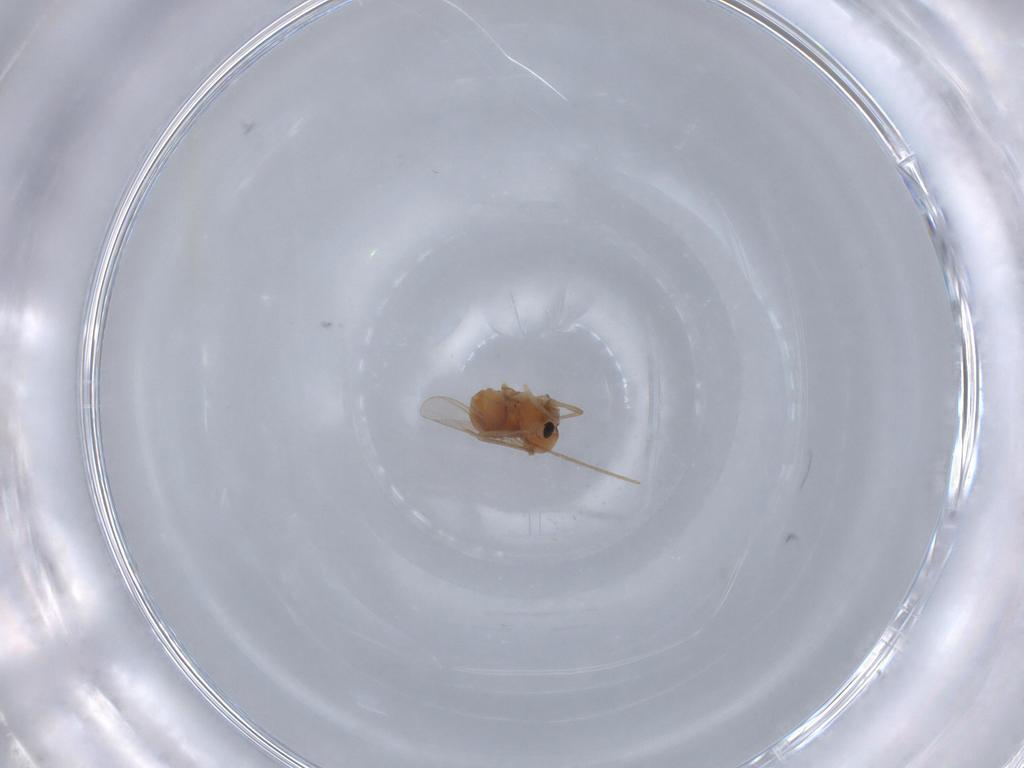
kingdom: Animalia
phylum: Arthropoda
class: Insecta
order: Diptera
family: Chironomidae
